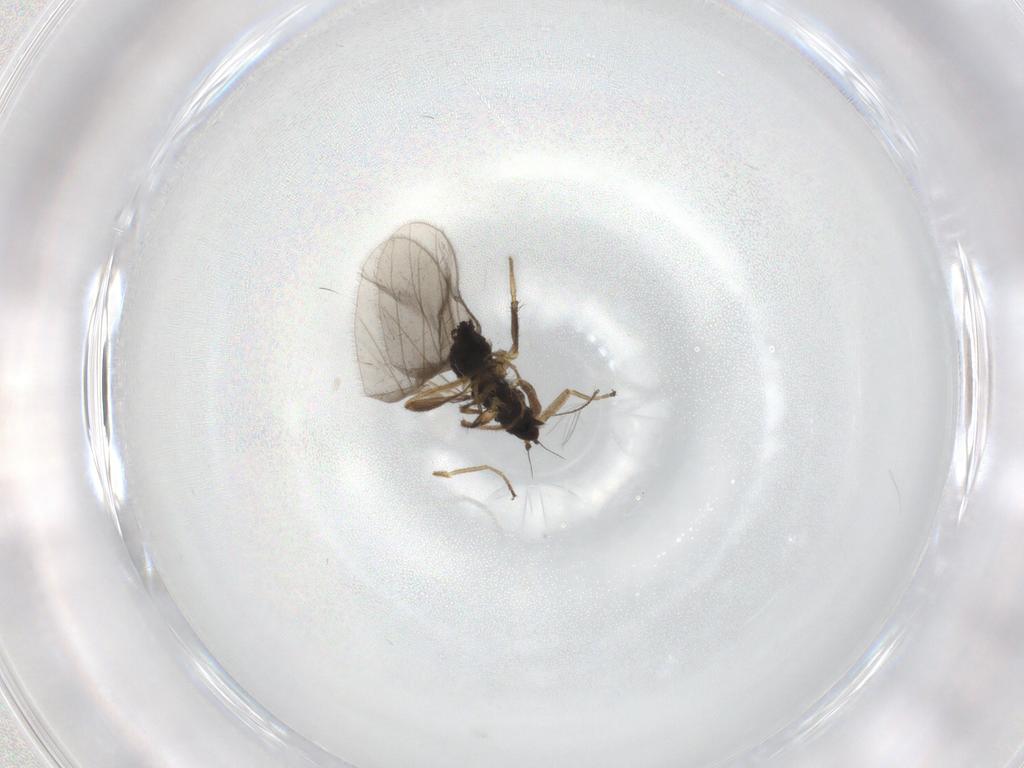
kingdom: Animalia
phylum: Arthropoda
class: Insecta
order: Diptera
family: Hybotidae
